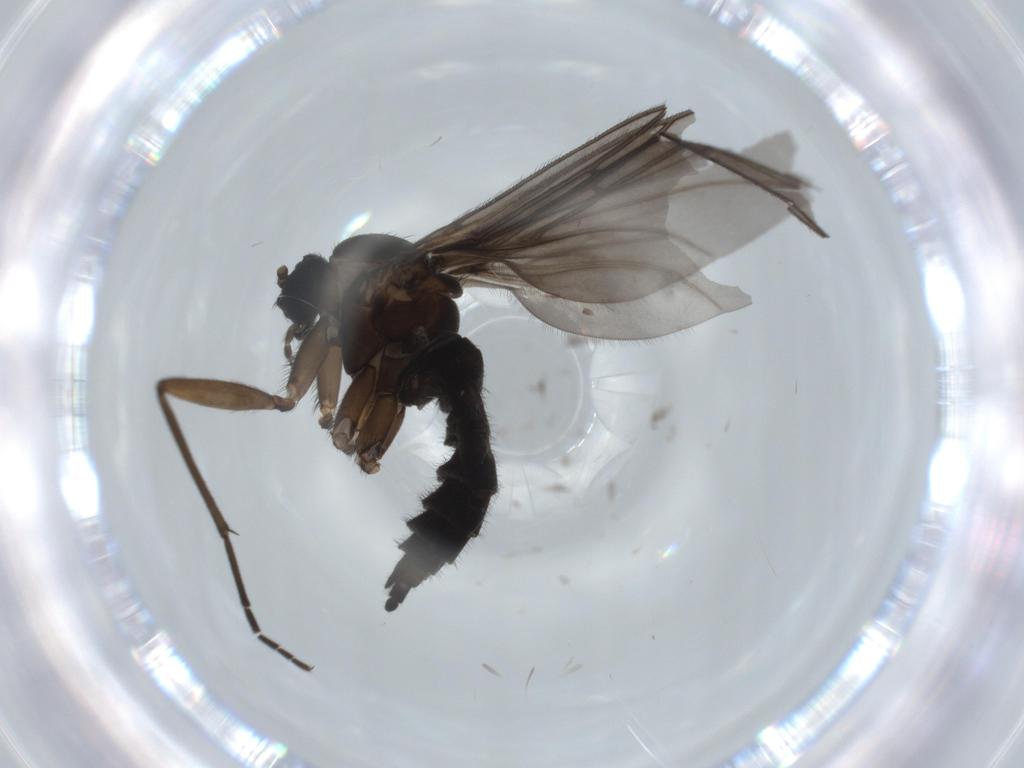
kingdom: Animalia
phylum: Arthropoda
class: Insecta
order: Diptera
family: Sciaridae
